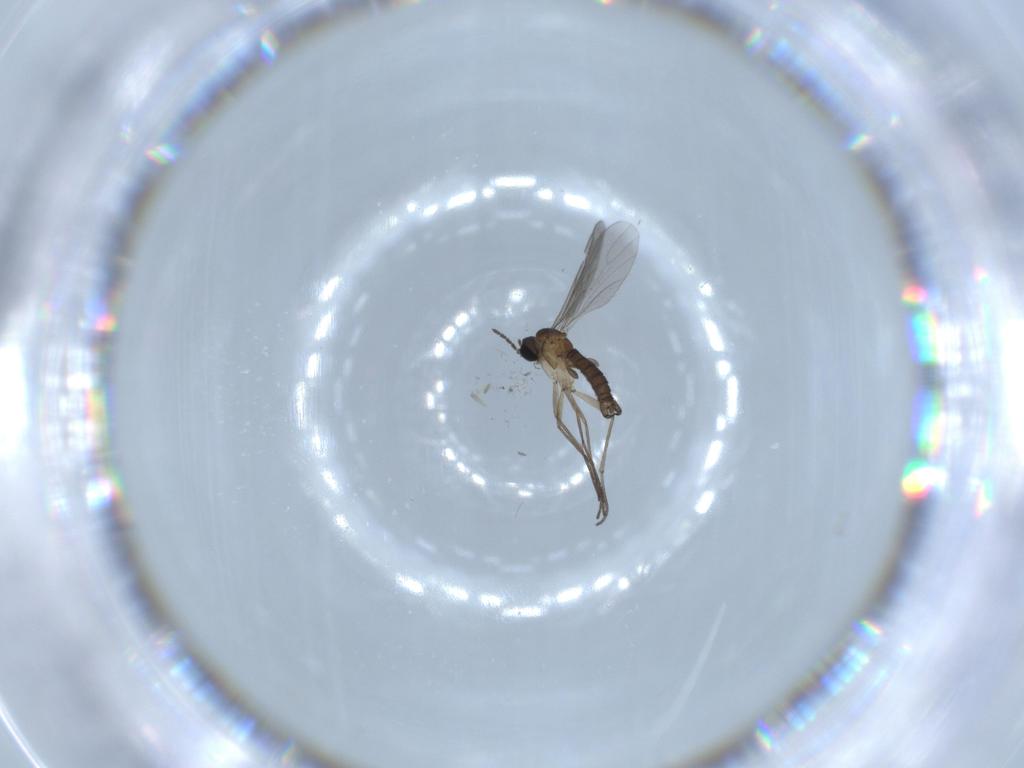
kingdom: Animalia
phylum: Arthropoda
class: Insecta
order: Diptera
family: Sciaridae
